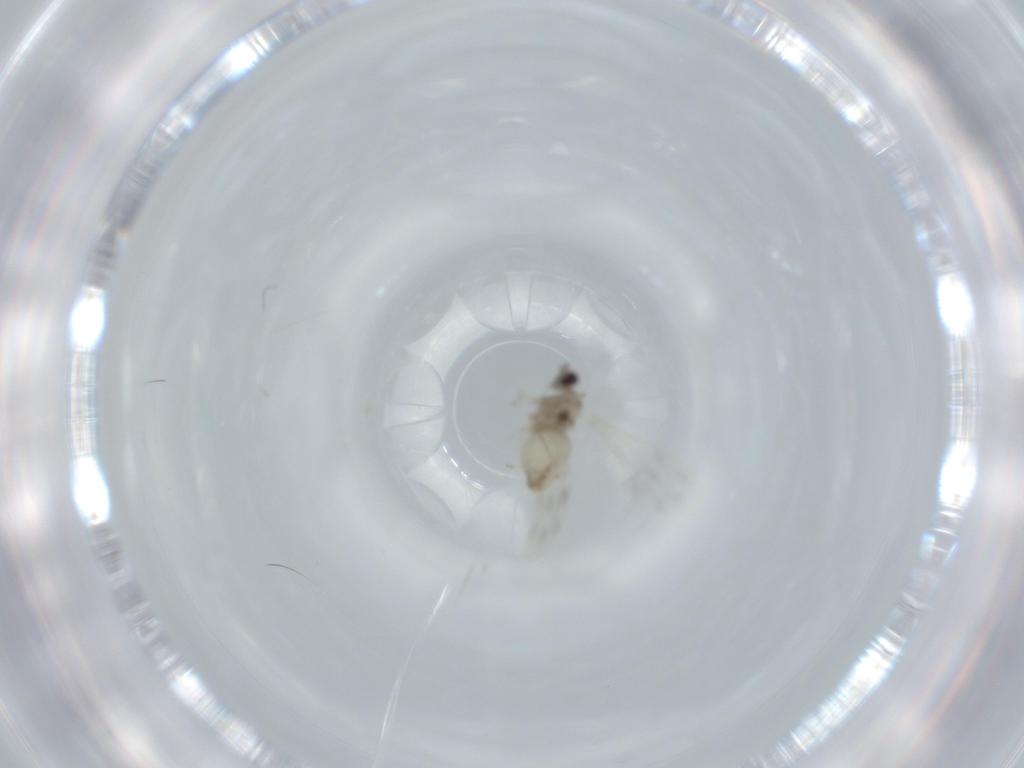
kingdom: Animalia
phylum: Arthropoda
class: Insecta
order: Diptera
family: Cecidomyiidae
